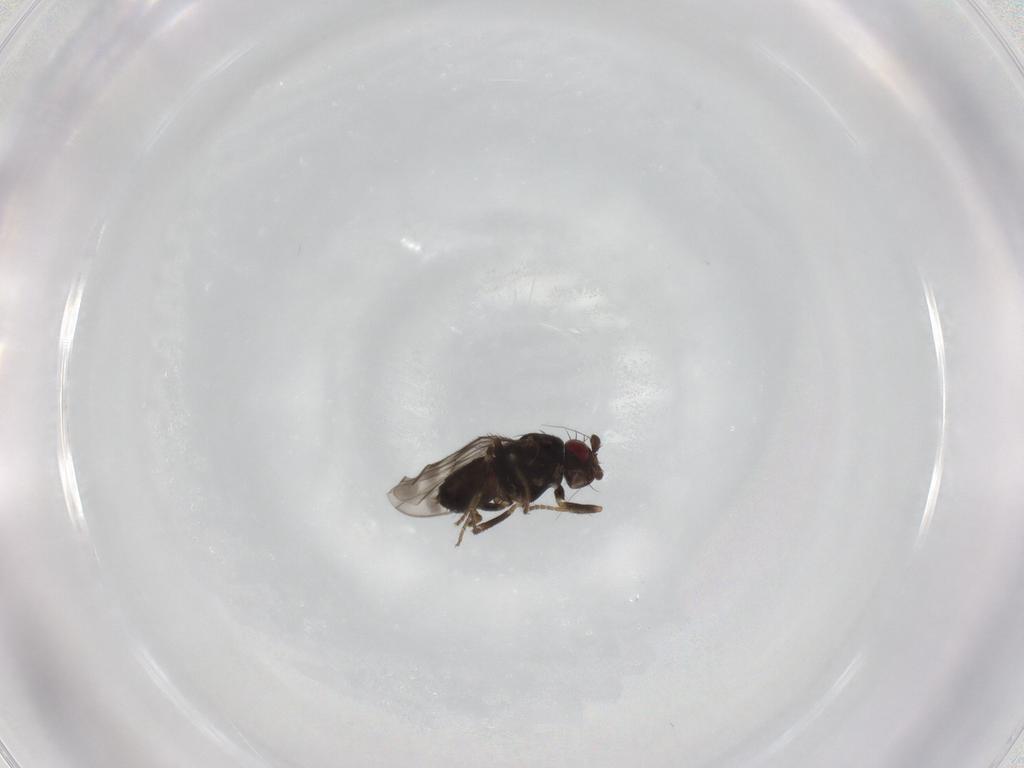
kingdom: Animalia
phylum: Arthropoda
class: Insecta
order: Diptera
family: Sphaeroceridae
